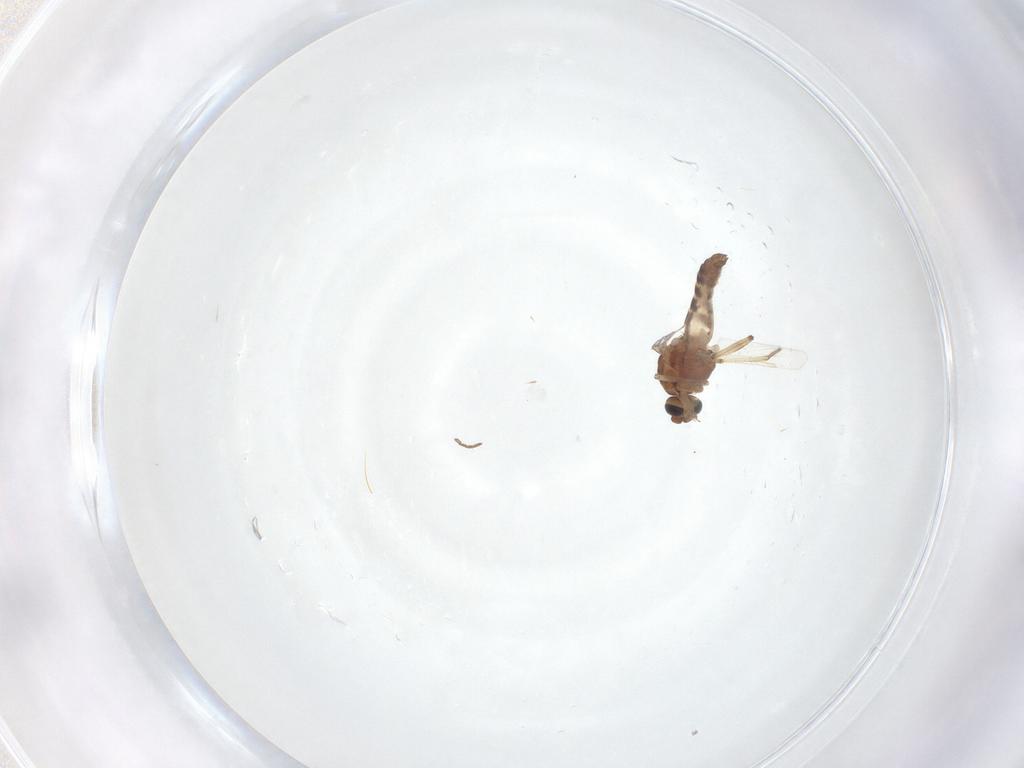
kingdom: Animalia
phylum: Arthropoda
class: Insecta
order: Diptera
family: Ceratopogonidae
